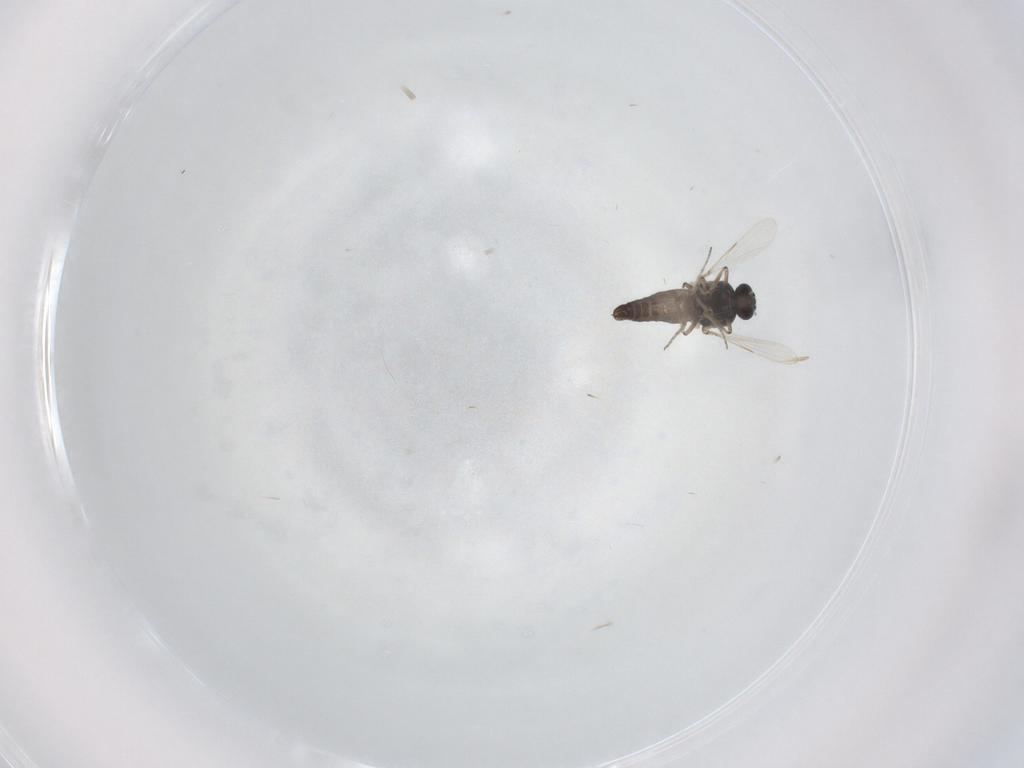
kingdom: Animalia
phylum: Arthropoda
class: Insecta
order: Diptera
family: Ceratopogonidae
